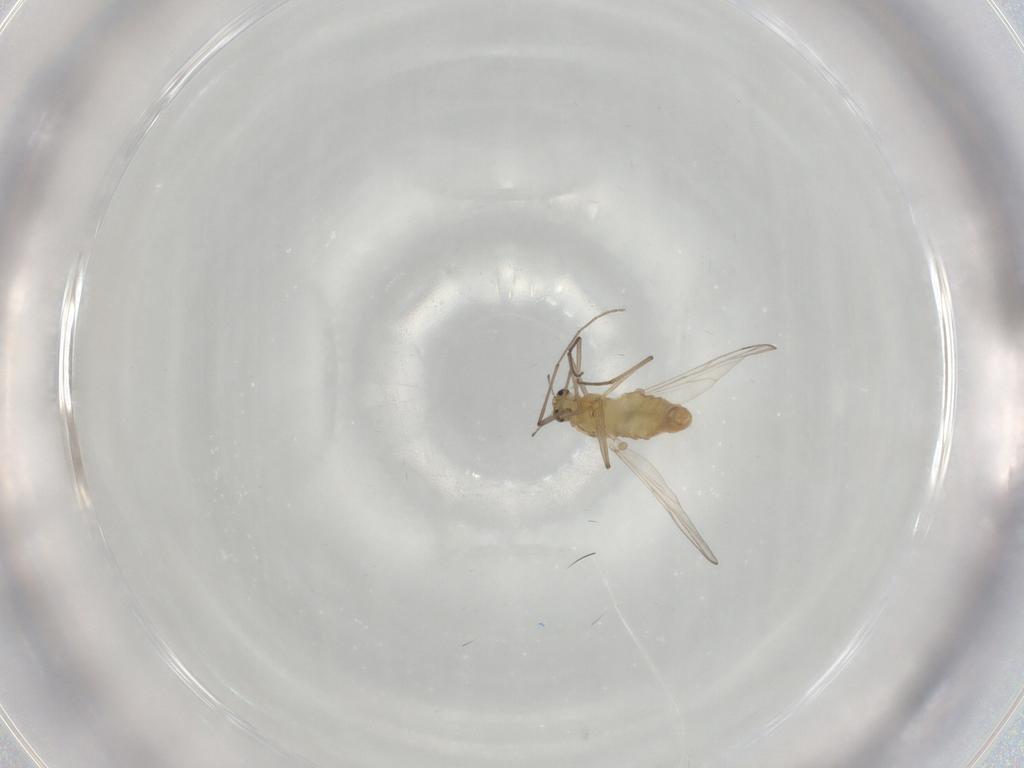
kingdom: Animalia
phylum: Arthropoda
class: Insecta
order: Diptera
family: Chironomidae
